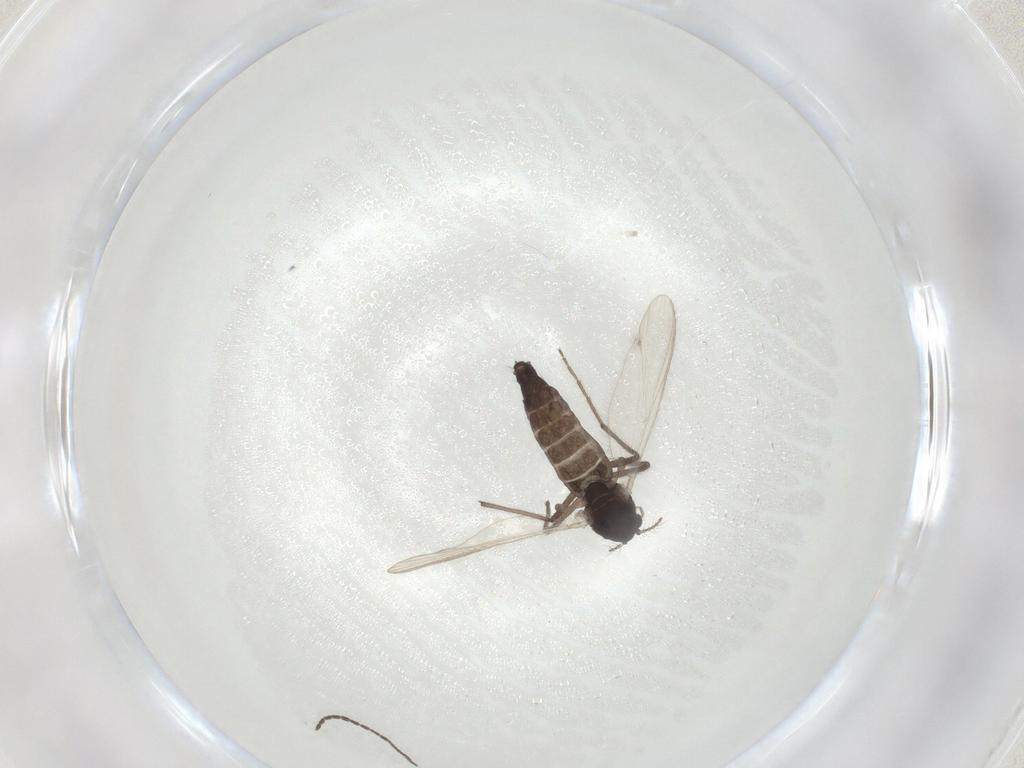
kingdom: Animalia
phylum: Arthropoda
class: Insecta
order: Diptera
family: Chironomidae
